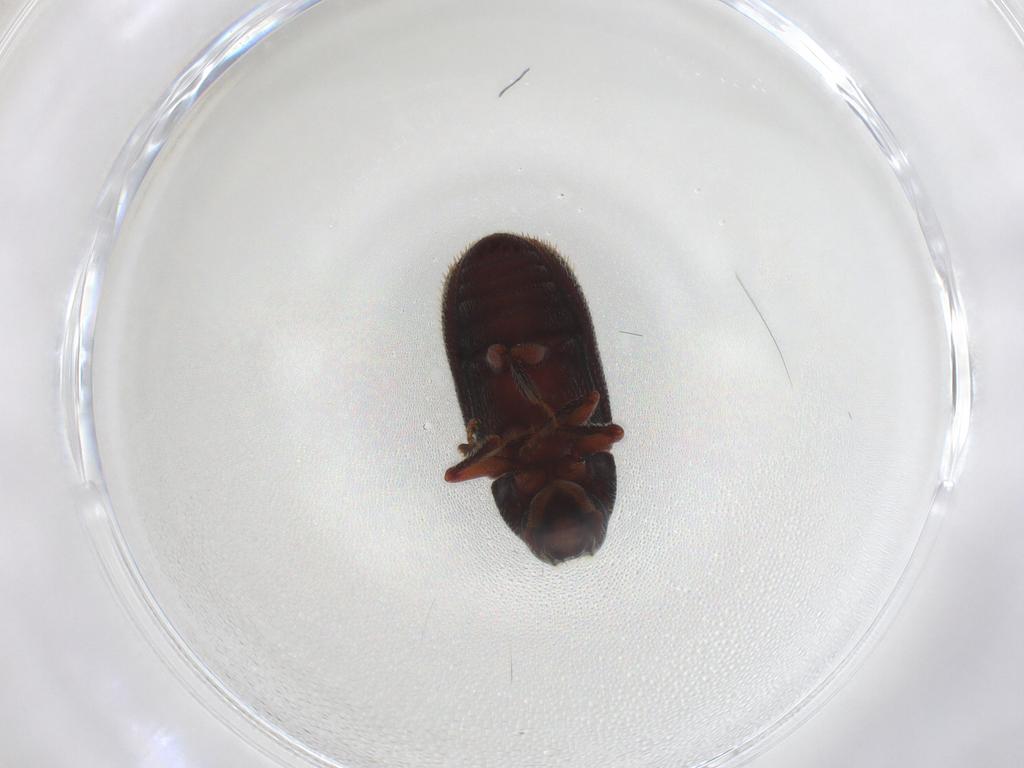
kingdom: Animalia
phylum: Arthropoda
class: Insecta
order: Coleoptera
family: Curculionidae
